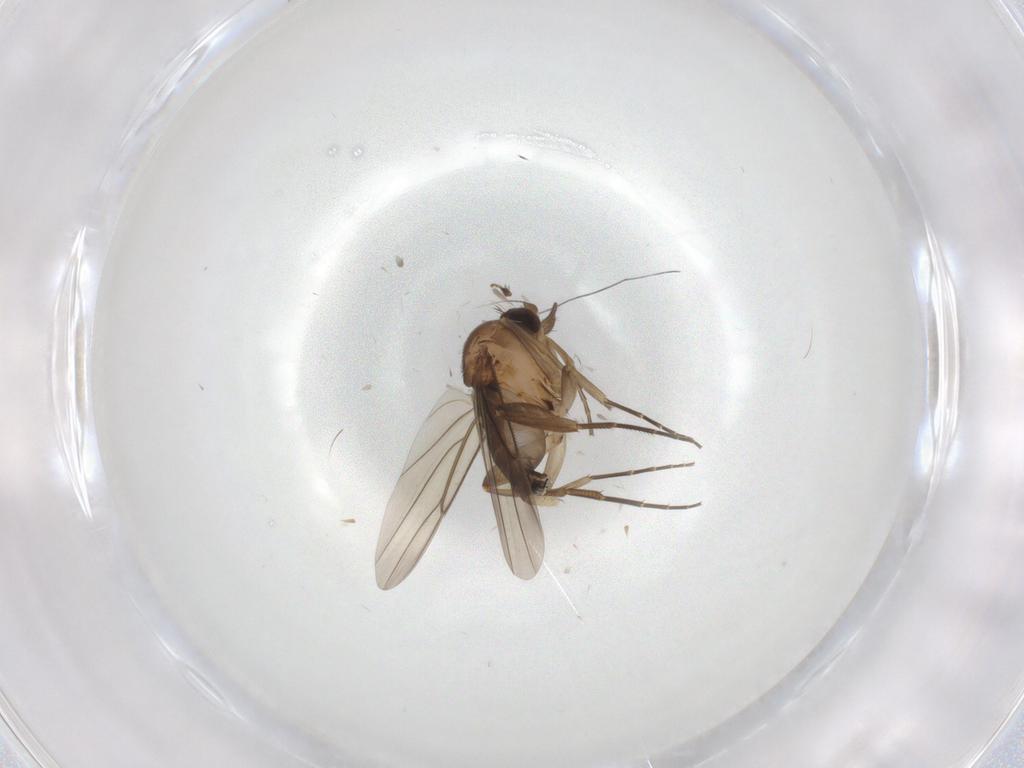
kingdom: Animalia
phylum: Arthropoda
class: Insecta
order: Diptera
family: Phoridae
